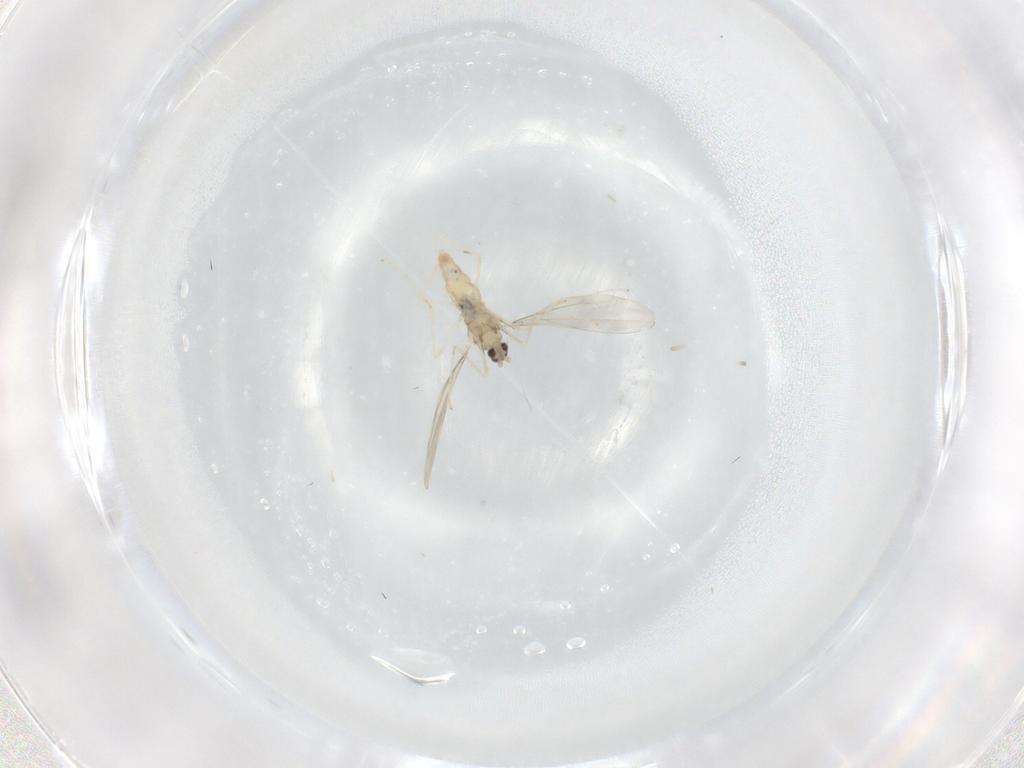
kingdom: Animalia
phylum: Arthropoda
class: Insecta
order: Diptera
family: Cecidomyiidae
